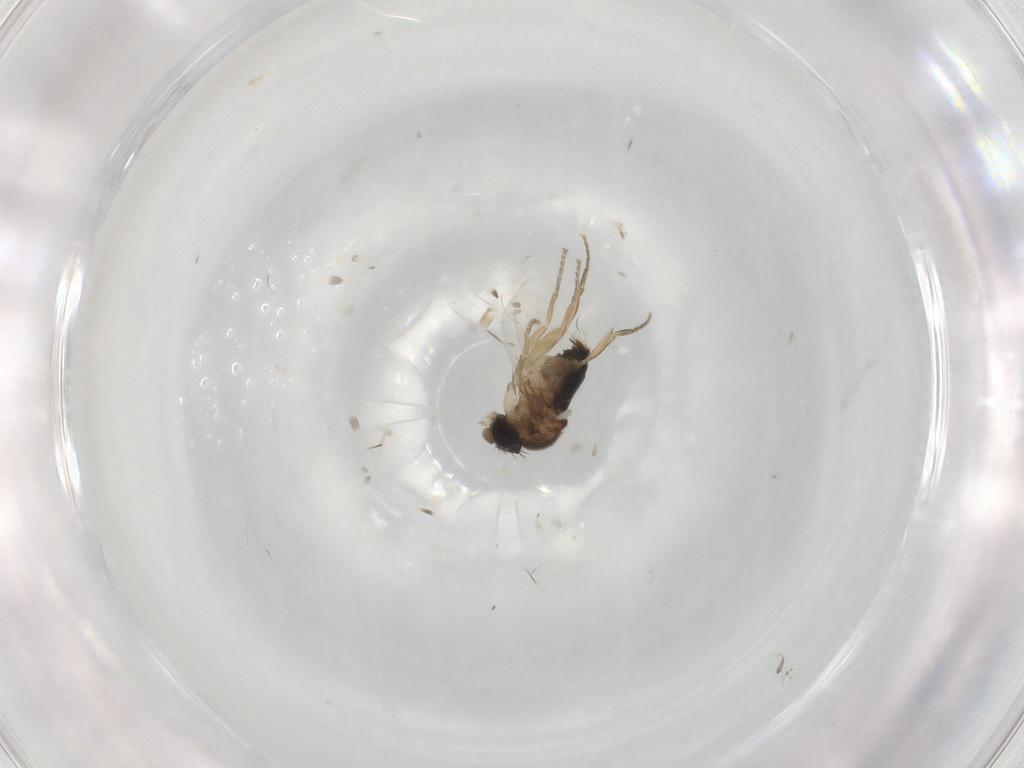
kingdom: Animalia
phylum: Arthropoda
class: Insecta
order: Diptera
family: Phoridae
